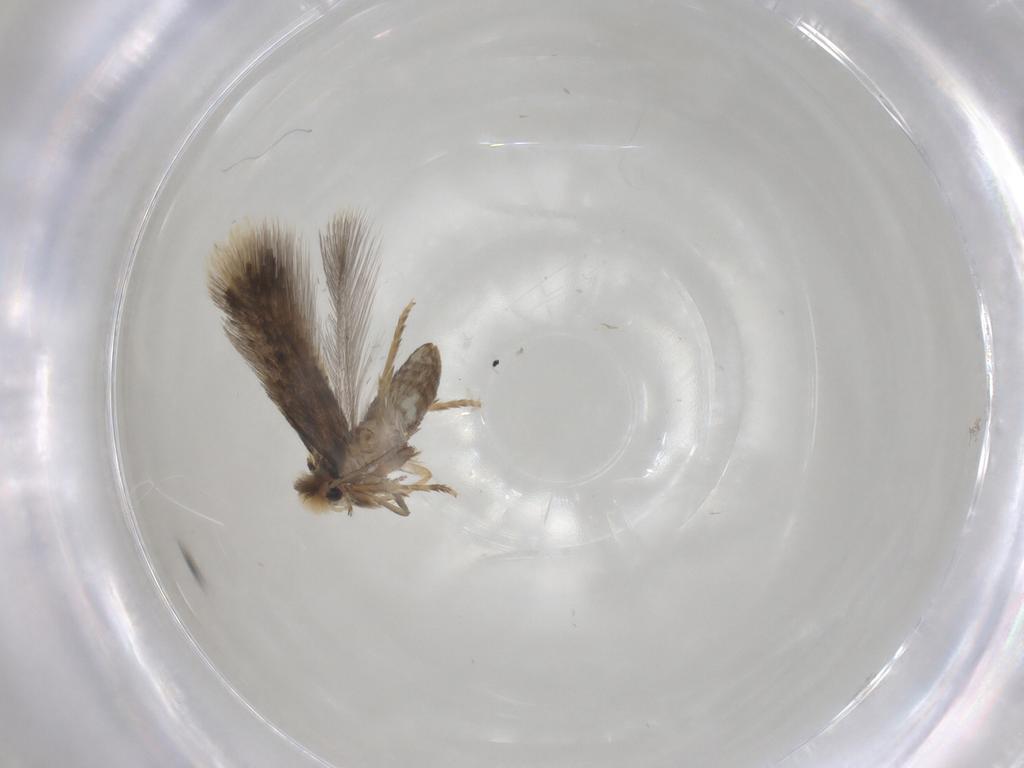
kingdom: Animalia
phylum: Arthropoda
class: Insecta
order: Lepidoptera
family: Nepticulidae
